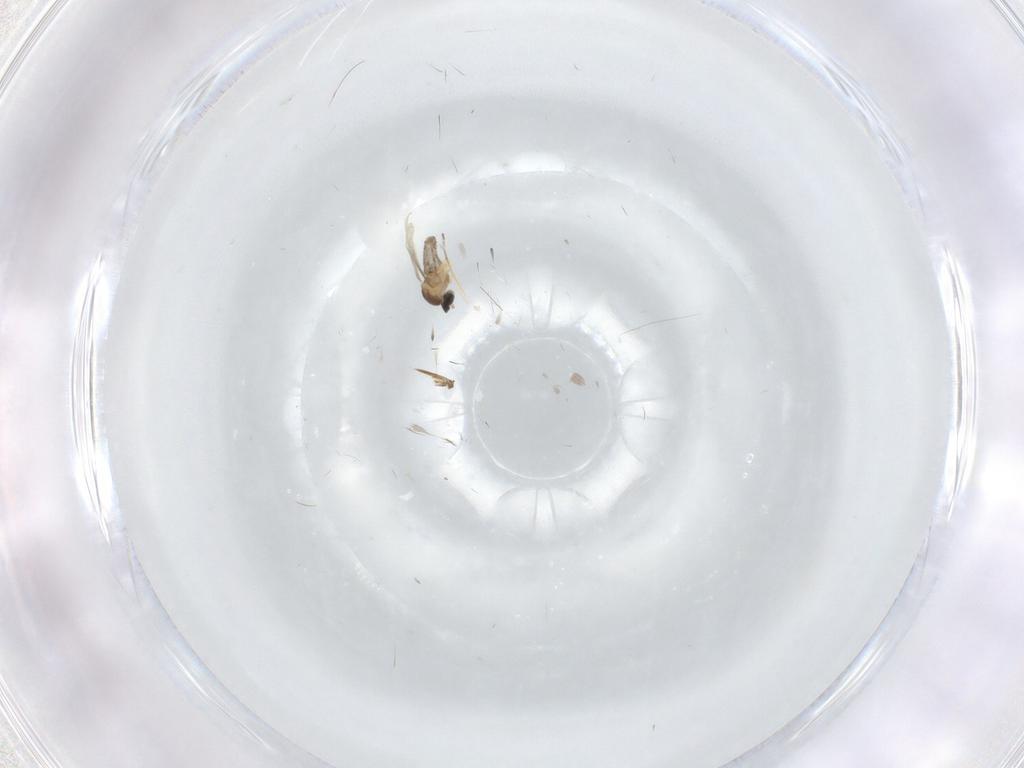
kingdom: Animalia
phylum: Arthropoda
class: Insecta
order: Diptera
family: Cecidomyiidae
